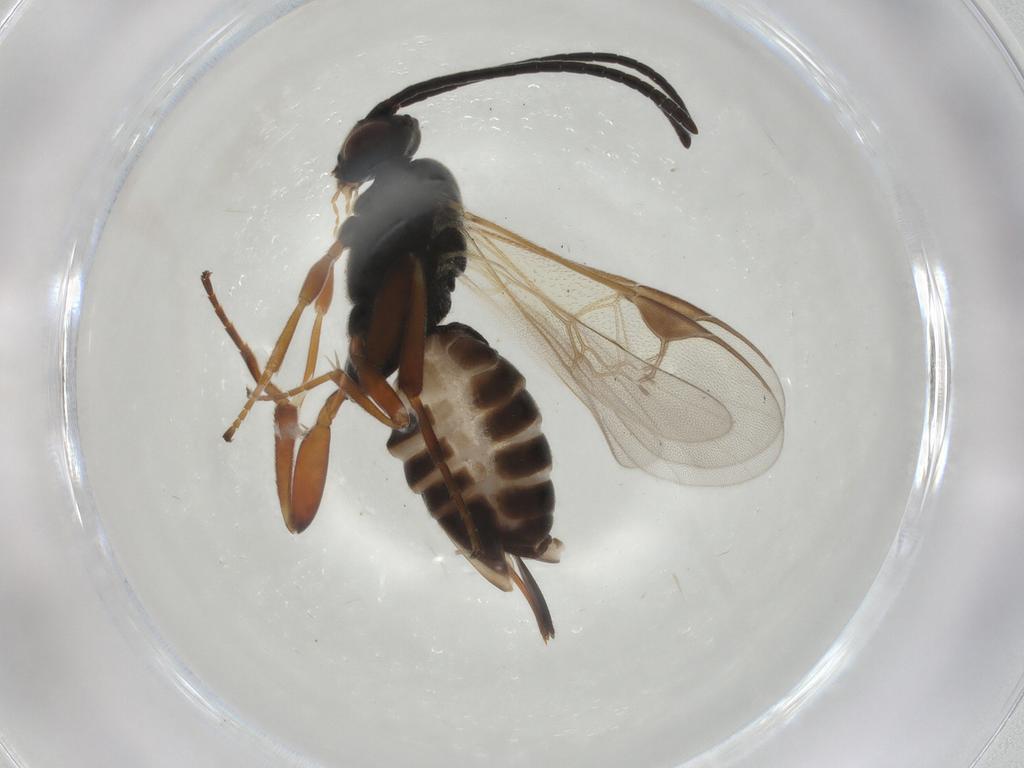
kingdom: Animalia
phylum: Arthropoda
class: Insecta
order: Hymenoptera
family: Braconidae
